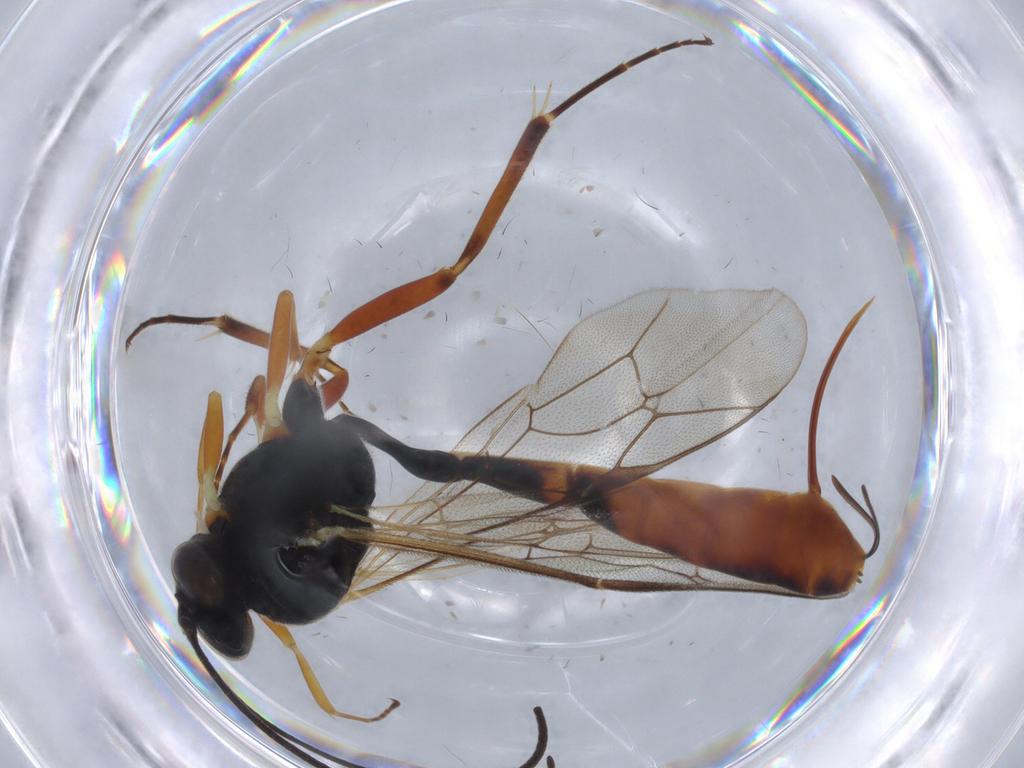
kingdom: Animalia
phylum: Arthropoda
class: Insecta
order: Hymenoptera
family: Ichneumonidae
